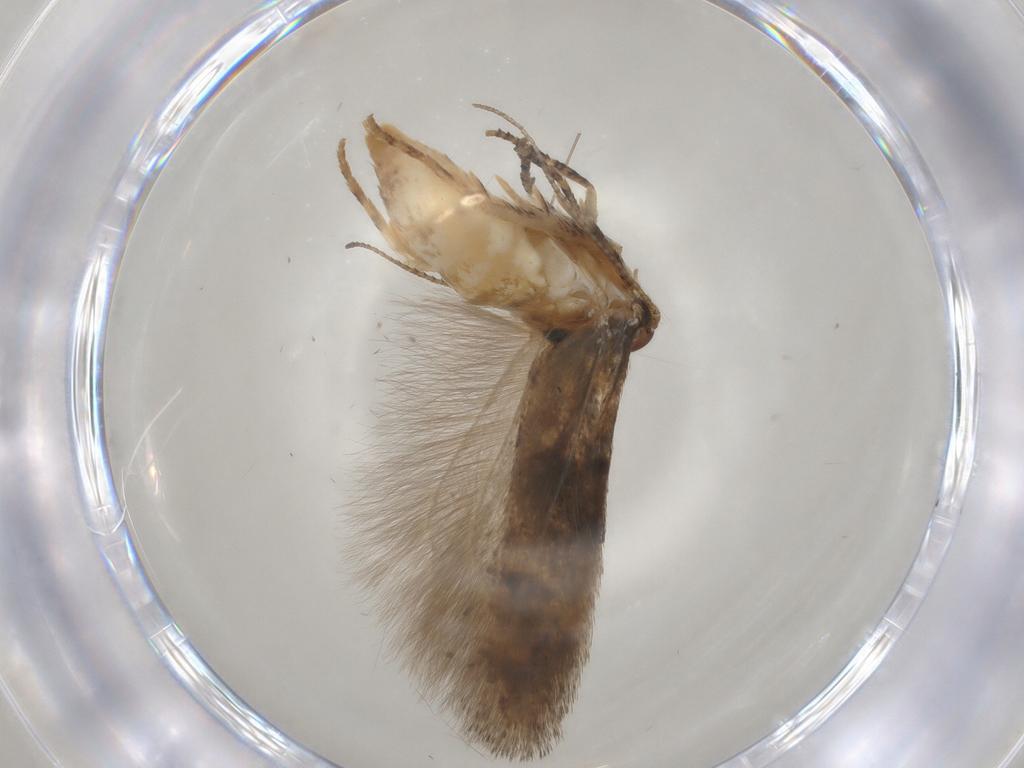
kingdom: Animalia
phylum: Arthropoda
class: Insecta
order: Lepidoptera
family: Gelechiidae
